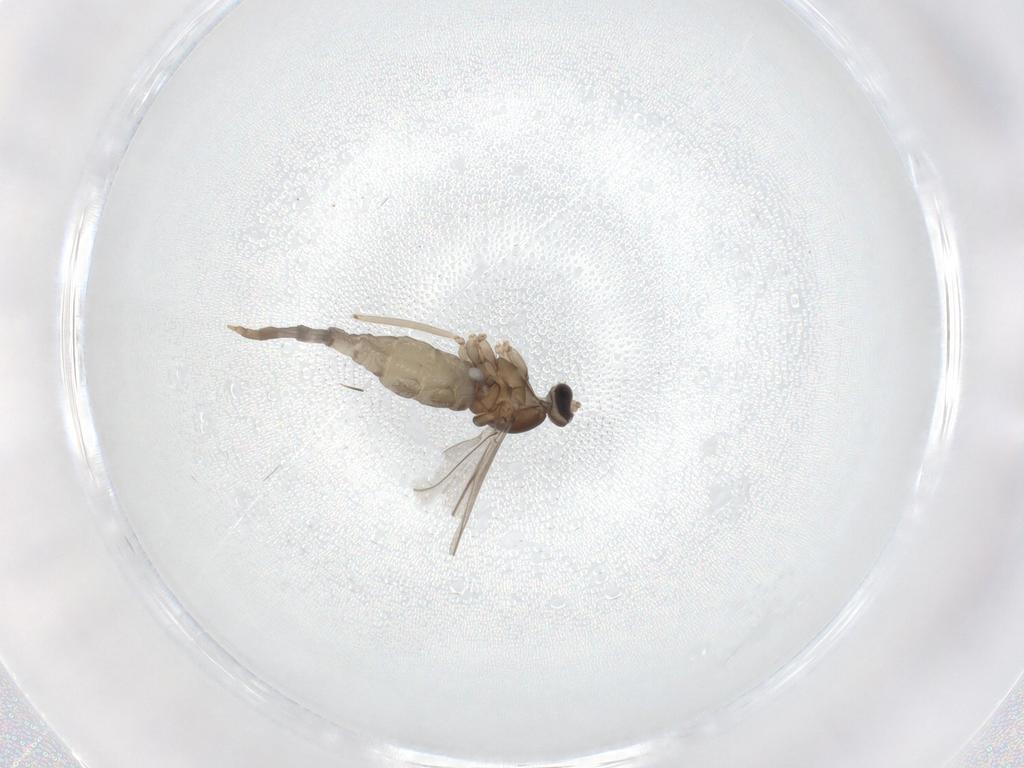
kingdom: Animalia
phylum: Arthropoda
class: Insecta
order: Diptera
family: Cecidomyiidae
